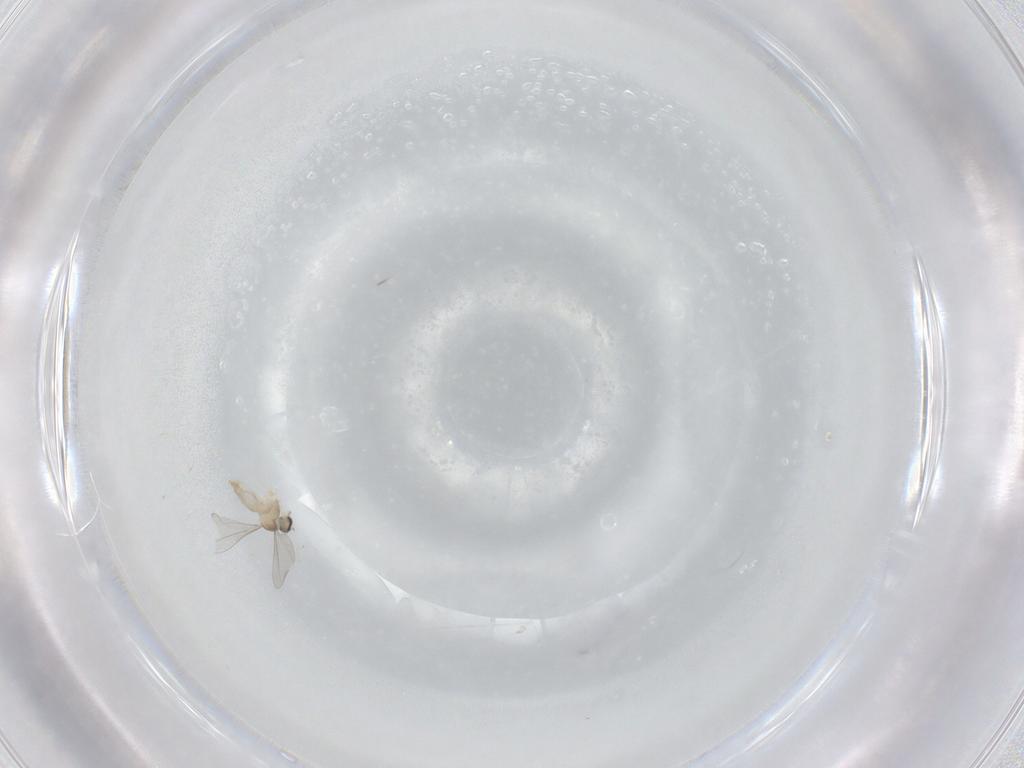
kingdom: Animalia
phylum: Arthropoda
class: Insecta
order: Diptera
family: Cecidomyiidae
